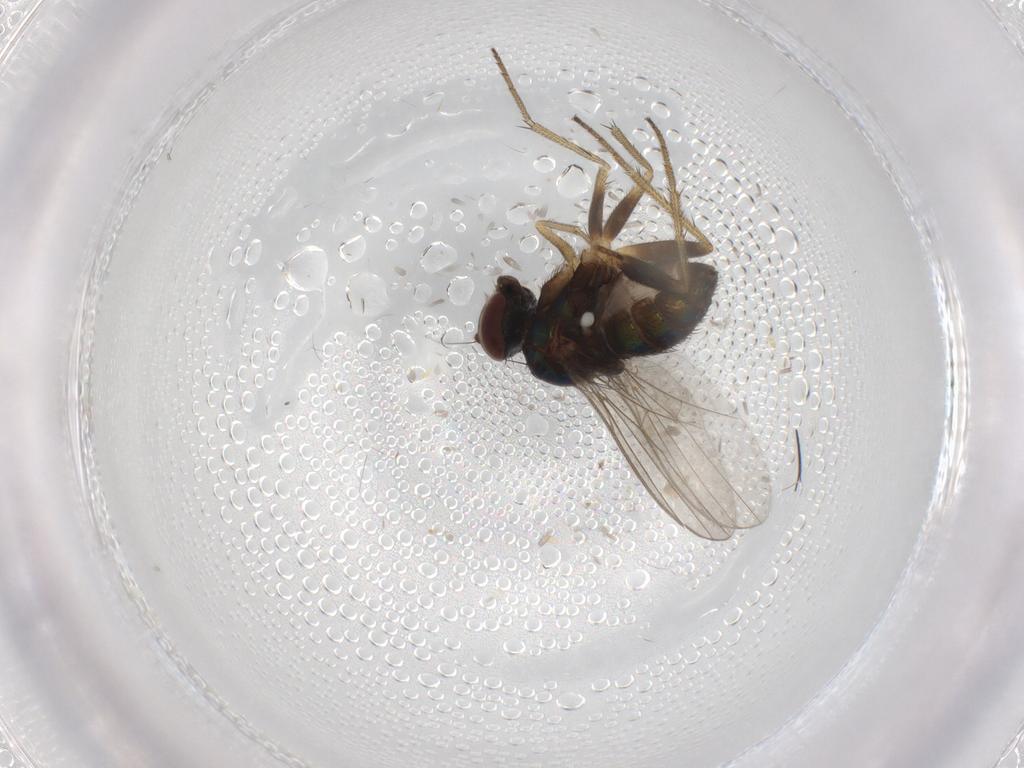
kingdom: Animalia
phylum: Arthropoda
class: Insecta
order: Diptera
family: Dolichopodidae
